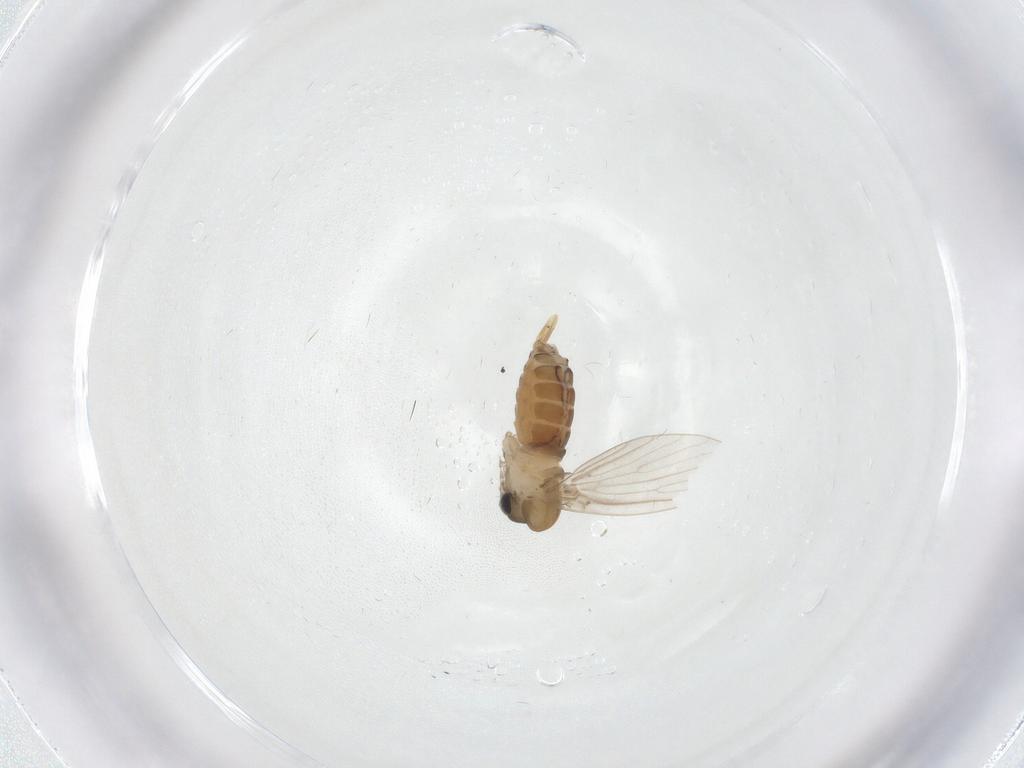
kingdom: Animalia
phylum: Arthropoda
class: Insecta
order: Diptera
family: Psychodidae
